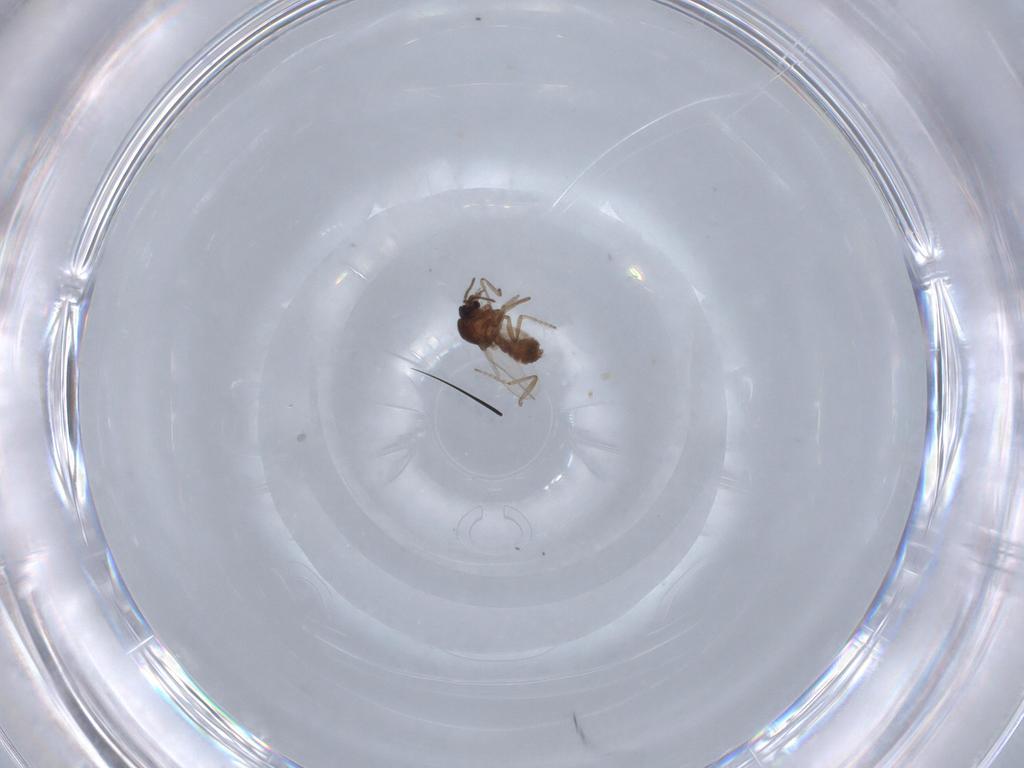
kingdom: Animalia
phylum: Arthropoda
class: Insecta
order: Diptera
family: Ceratopogonidae
